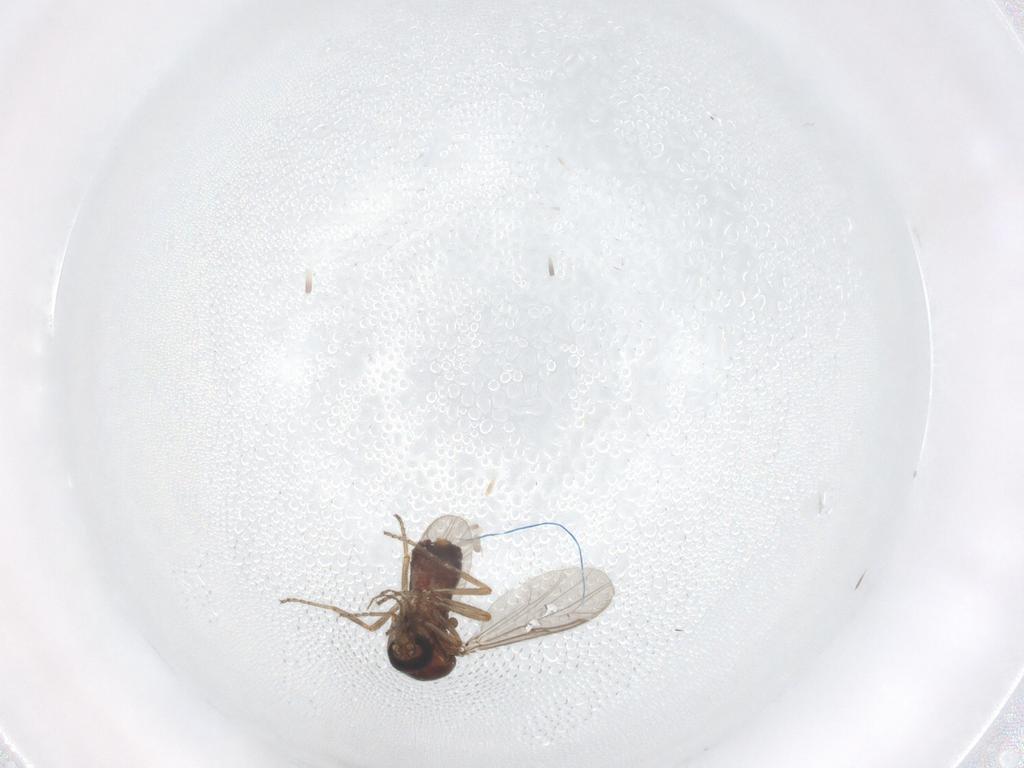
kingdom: Animalia
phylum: Arthropoda
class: Insecta
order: Diptera
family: Ceratopogonidae
